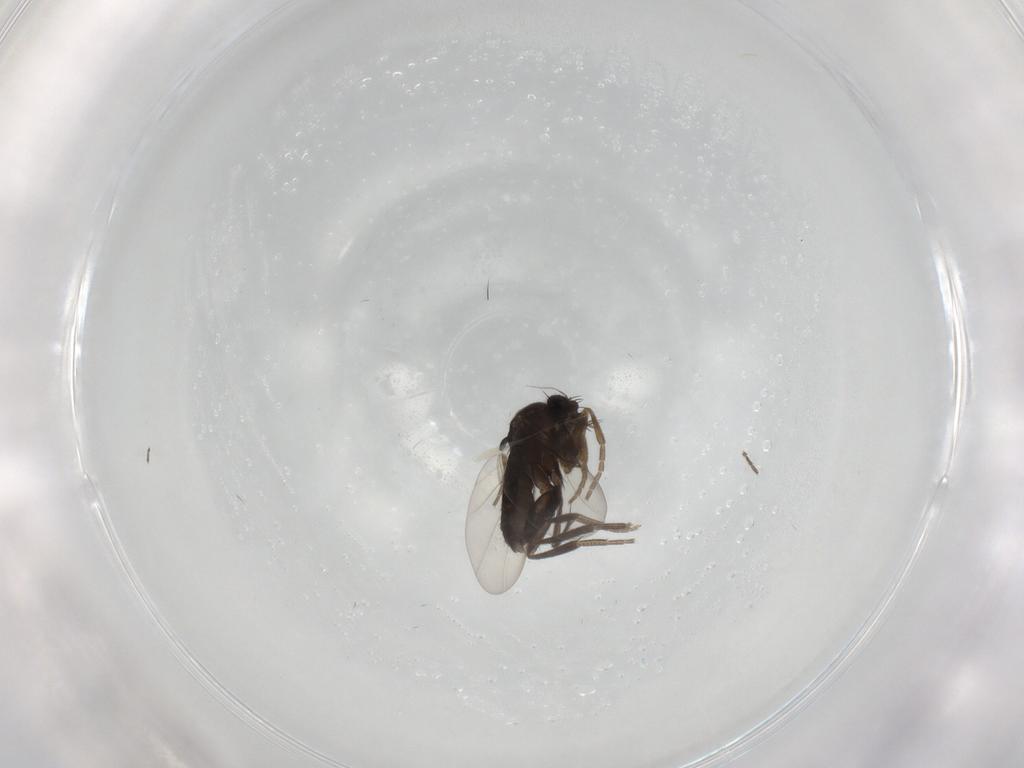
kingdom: Animalia
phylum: Arthropoda
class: Insecta
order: Diptera
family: Phoridae
